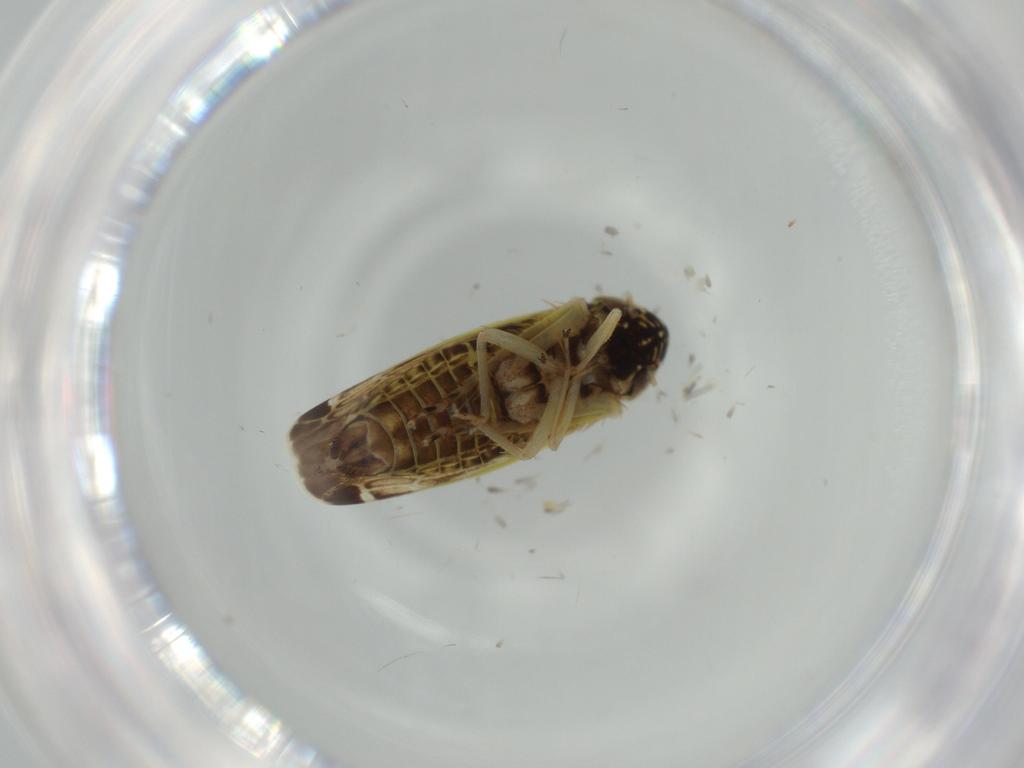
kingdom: Animalia
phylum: Arthropoda
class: Insecta
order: Hemiptera
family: Cicadellidae
